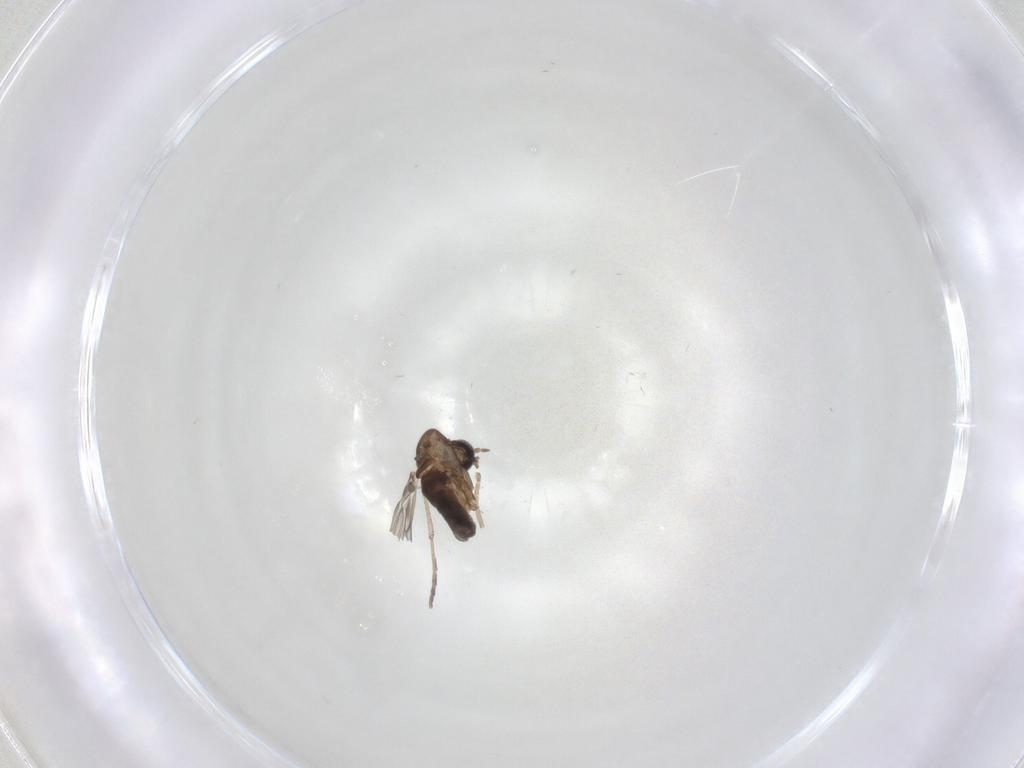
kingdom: Animalia
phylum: Arthropoda
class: Insecta
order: Diptera
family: Psychodidae
